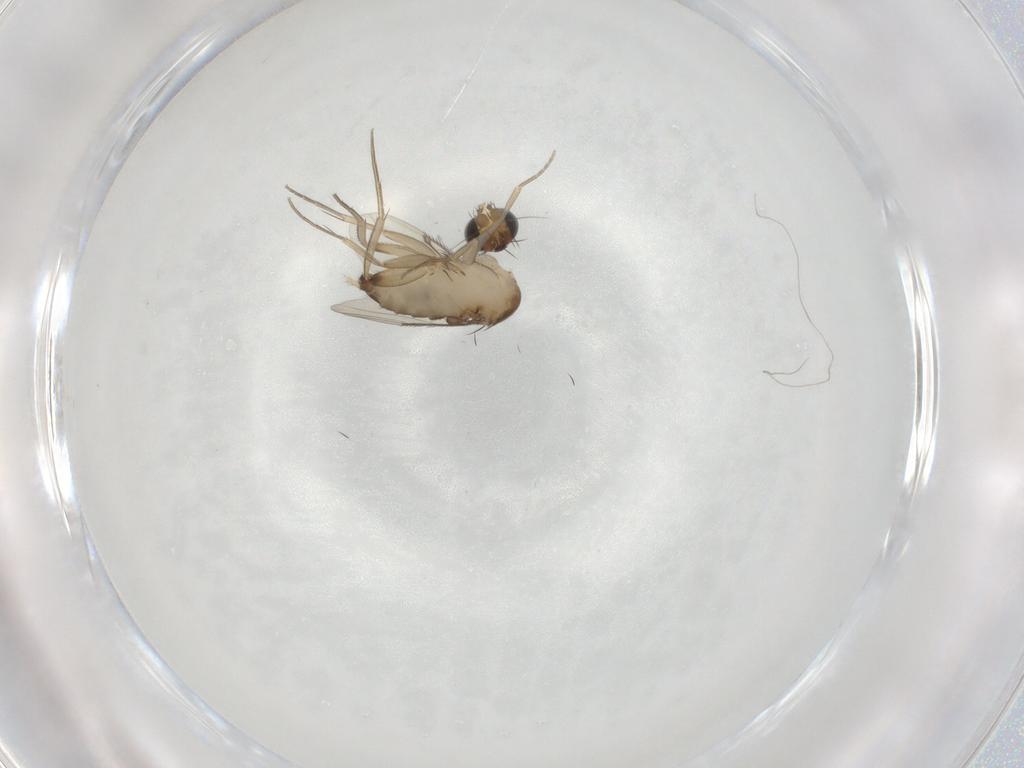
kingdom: Animalia
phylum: Arthropoda
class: Insecta
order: Diptera
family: Phoridae
